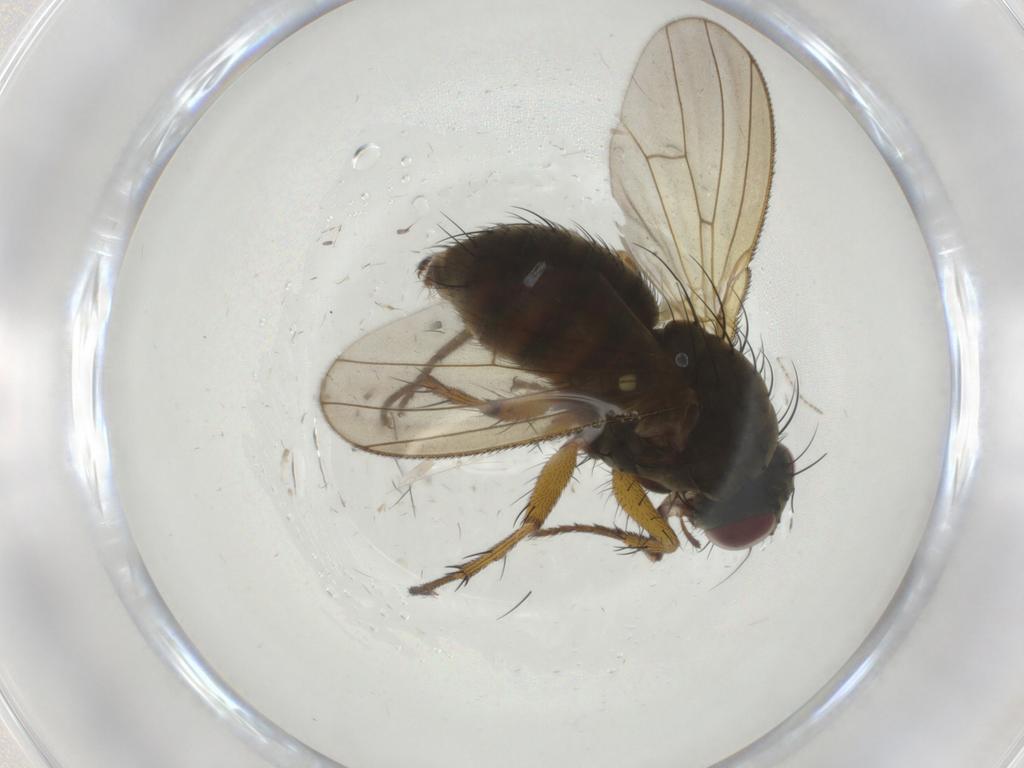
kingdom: Animalia
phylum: Arthropoda
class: Insecta
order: Diptera
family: Muscidae
